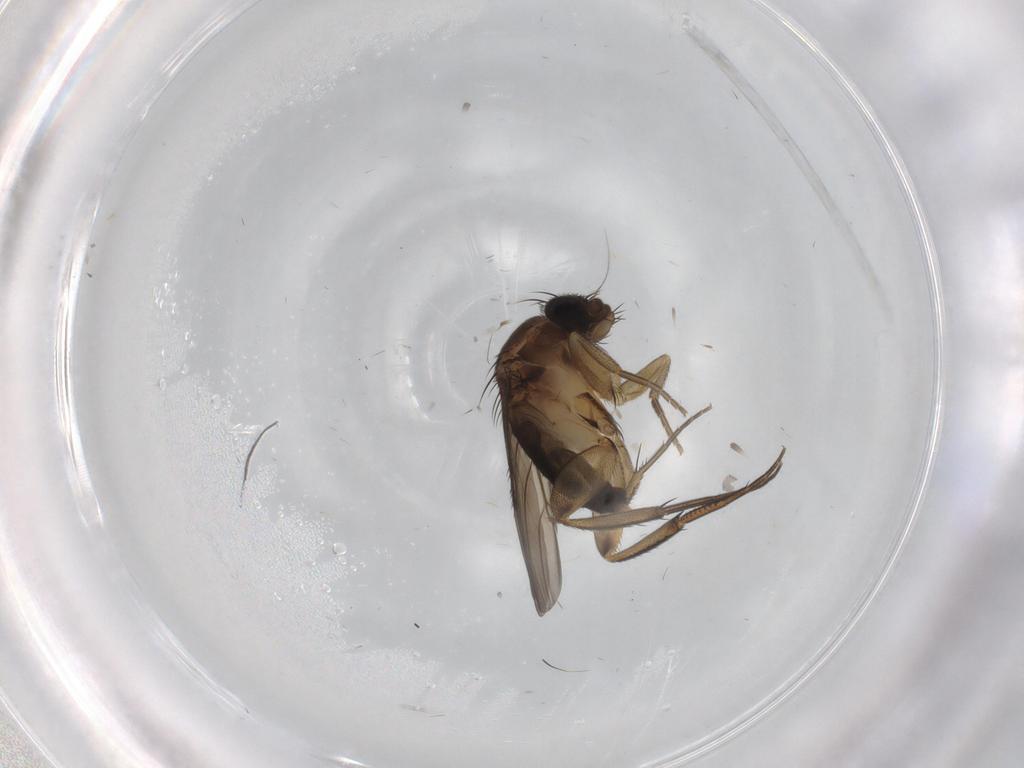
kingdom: Animalia
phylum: Arthropoda
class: Insecta
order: Diptera
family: Phoridae
